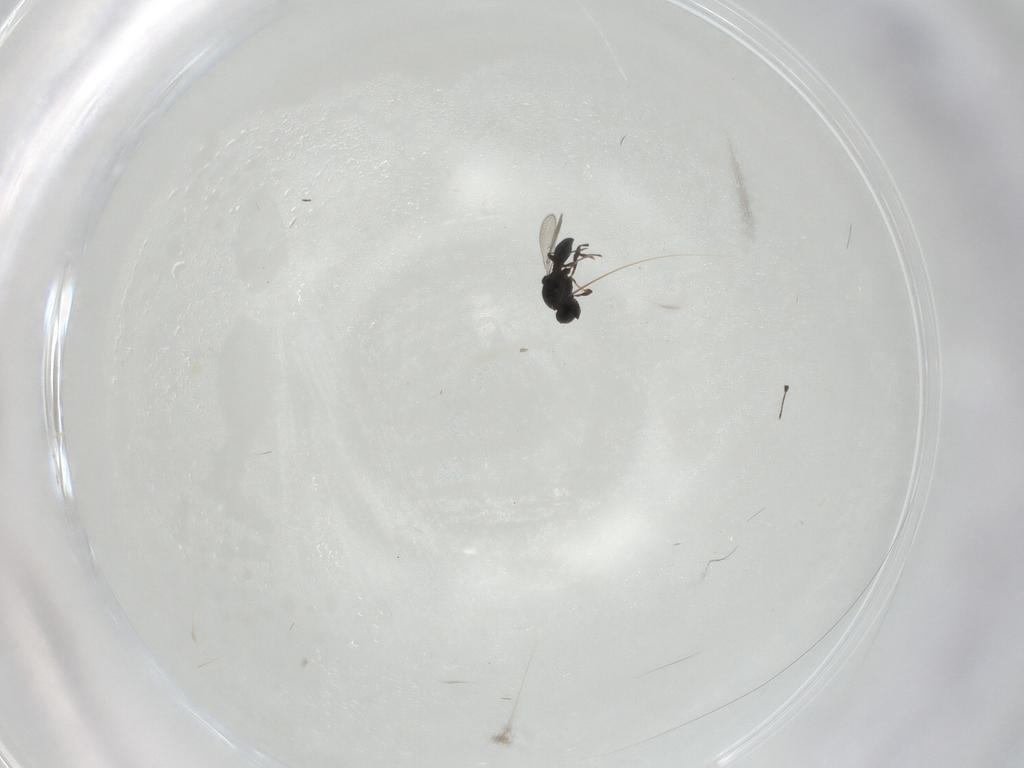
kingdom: Animalia
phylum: Arthropoda
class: Insecta
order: Hymenoptera
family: Platygastridae
